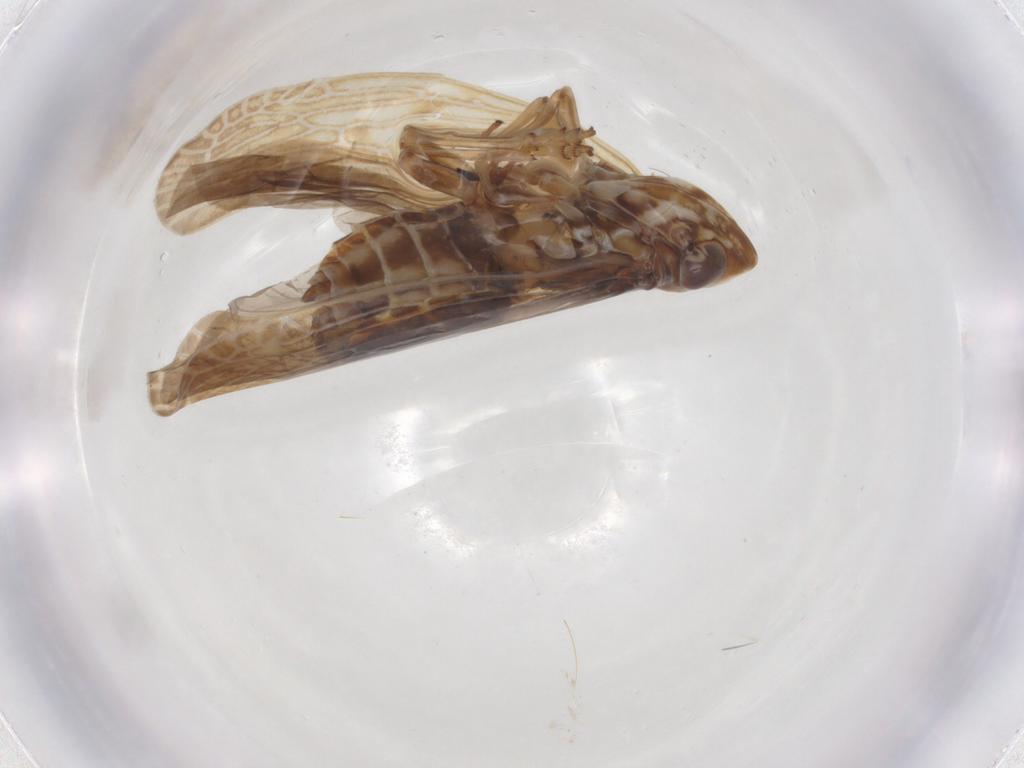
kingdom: Animalia
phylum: Arthropoda
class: Insecta
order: Hemiptera
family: Achilidae
